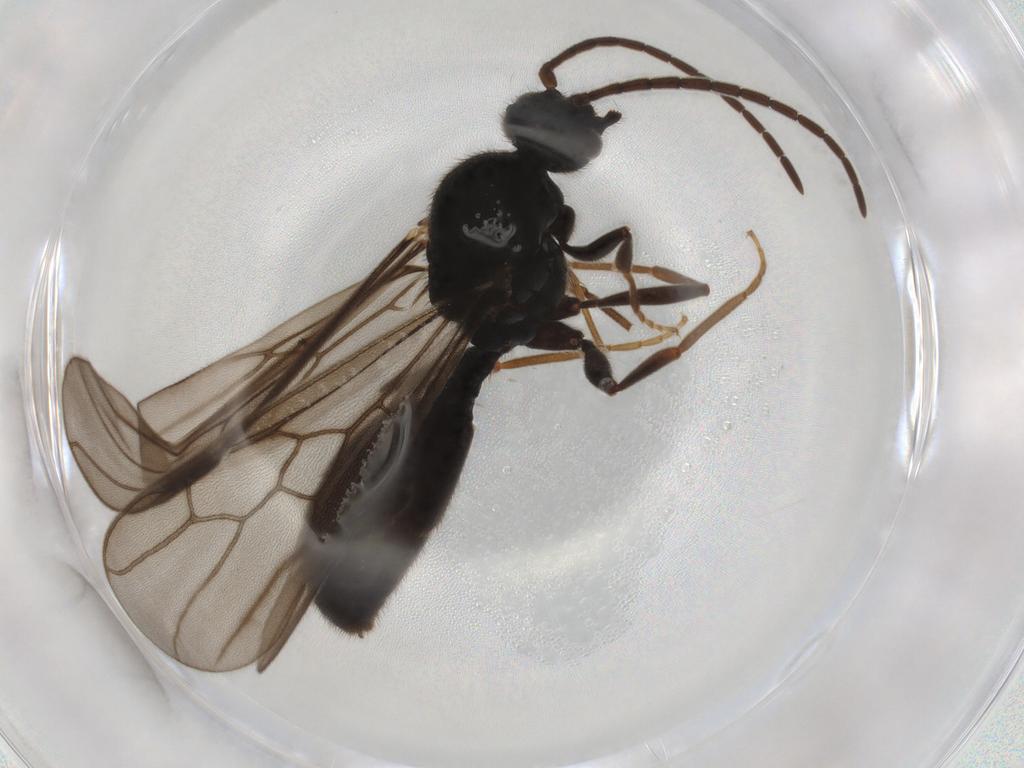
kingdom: Animalia
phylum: Arthropoda
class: Insecta
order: Hymenoptera
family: Formicidae
